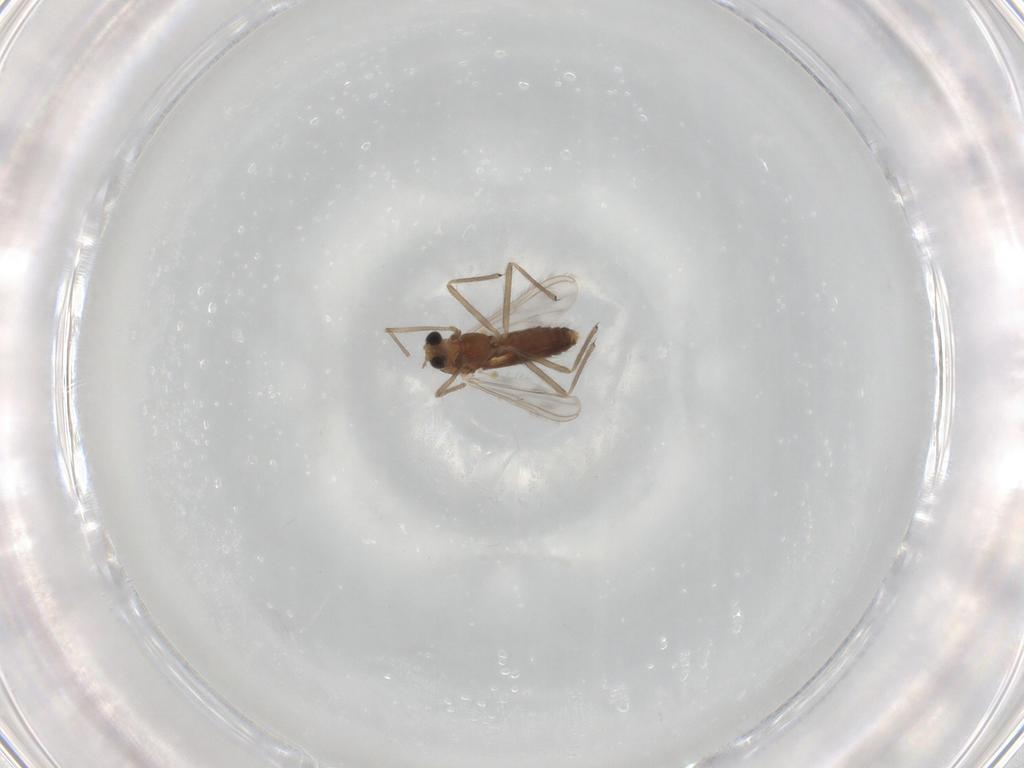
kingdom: Animalia
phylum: Arthropoda
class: Insecta
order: Diptera
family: Chironomidae
